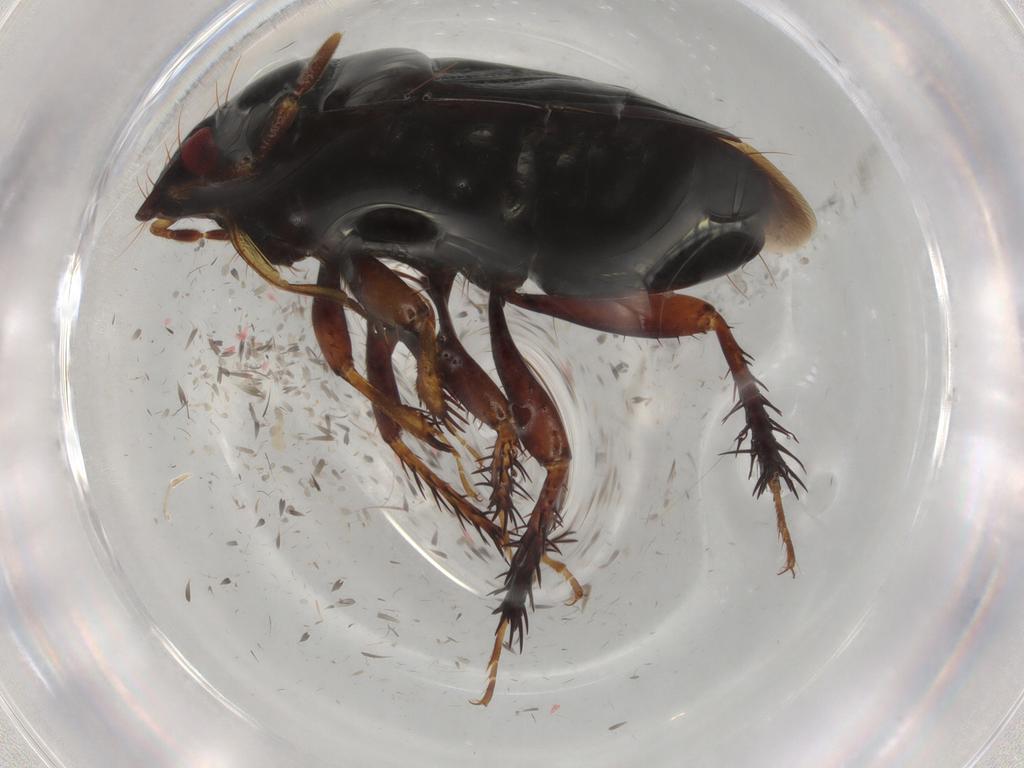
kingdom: Animalia
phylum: Arthropoda
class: Insecta
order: Hemiptera
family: Cydnidae
